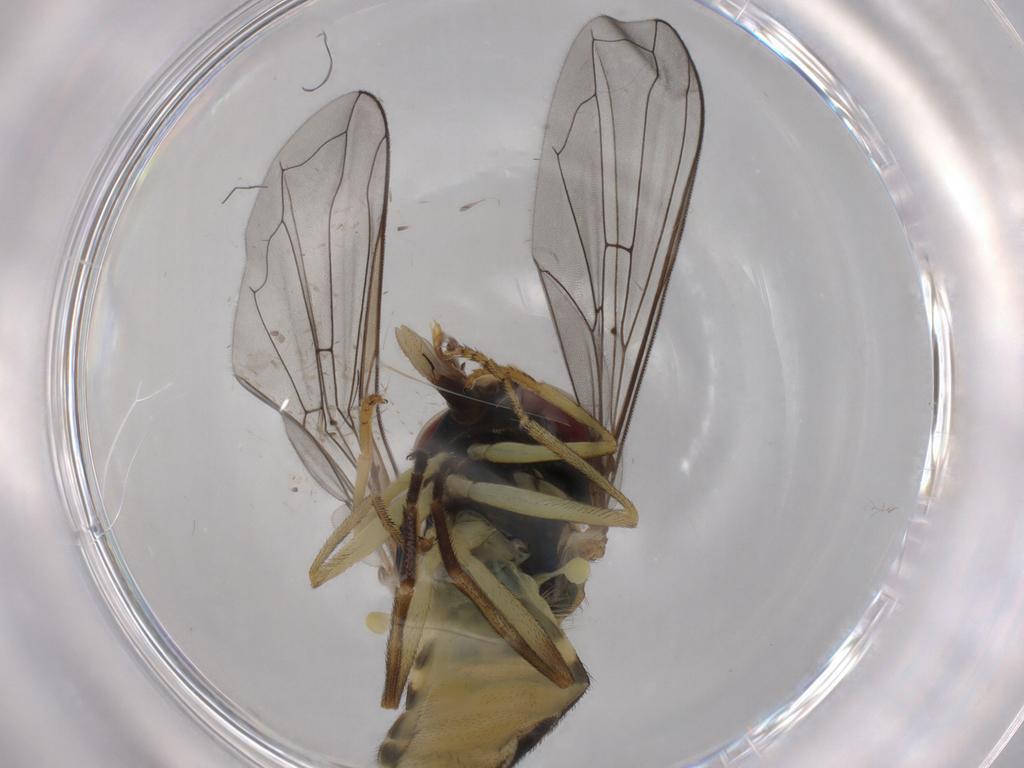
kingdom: Animalia
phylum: Arthropoda
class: Insecta
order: Diptera
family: Syrphidae
